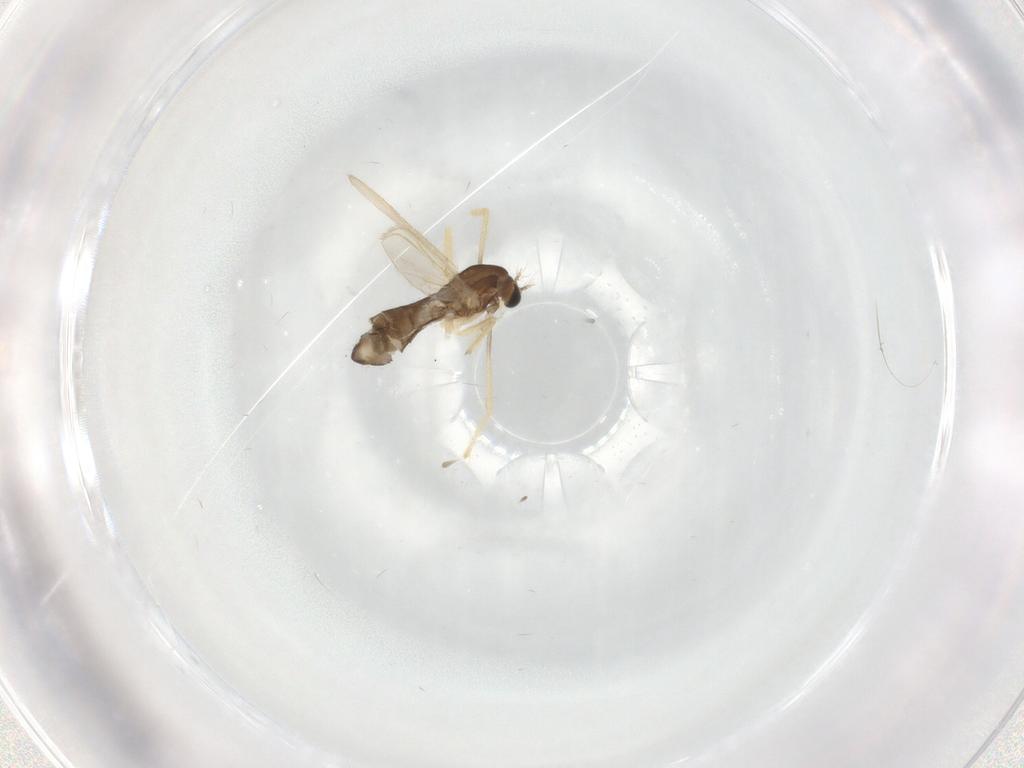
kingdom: Animalia
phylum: Arthropoda
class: Insecta
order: Diptera
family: Chironomidae
